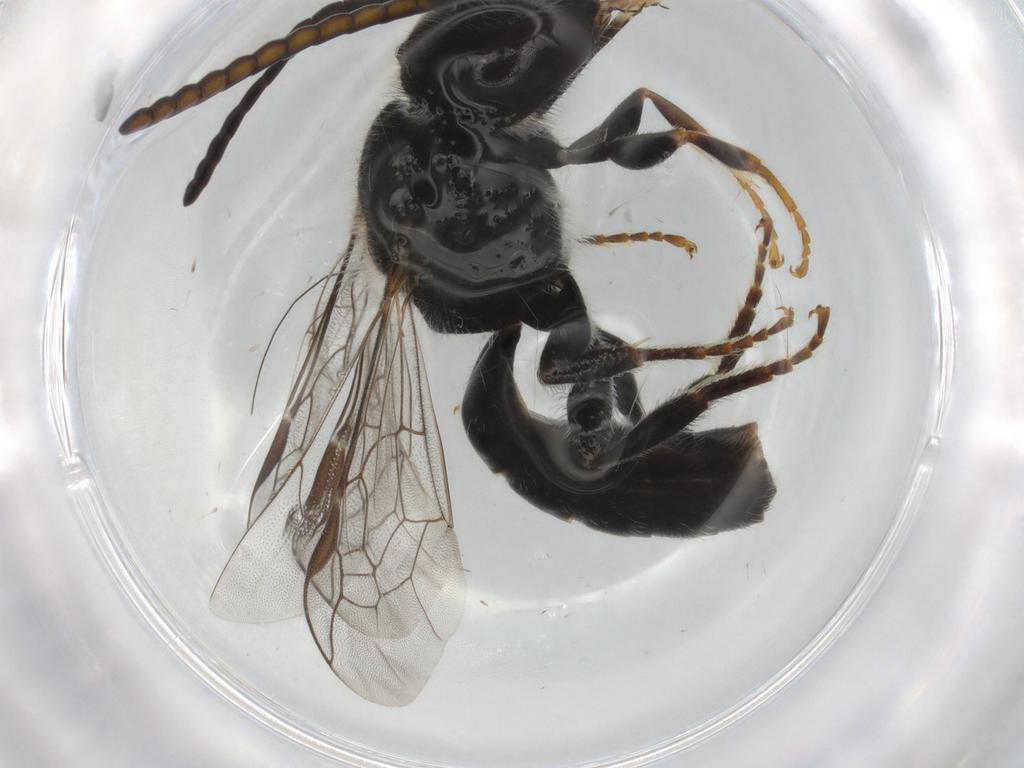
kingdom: Animalia
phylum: Arthropoda
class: Insecta
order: Hymenoptera
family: Halictidae
